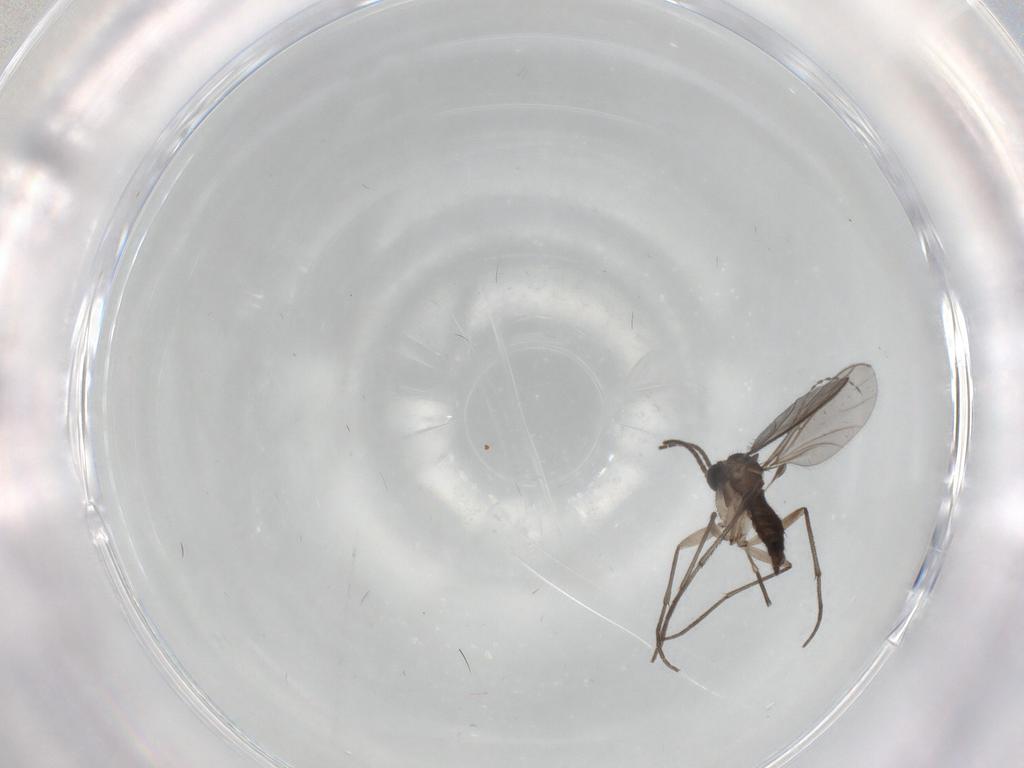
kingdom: Animalia
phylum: Arthropoda
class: Insecta
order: Diptera
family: Sciaridae
